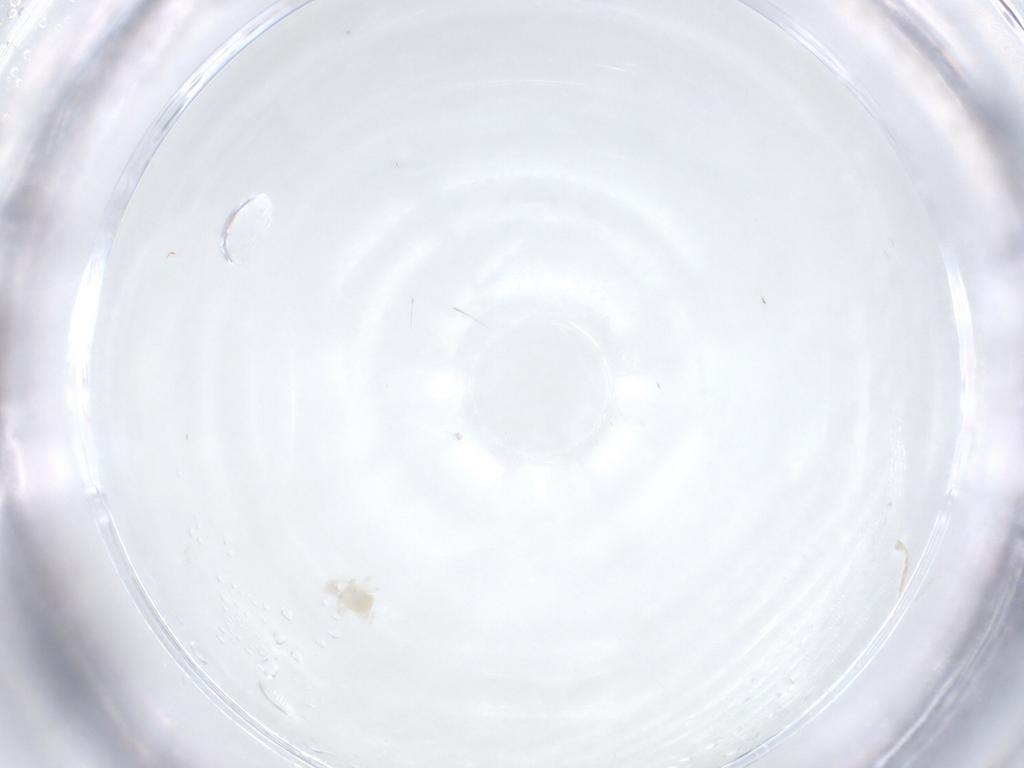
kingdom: Animalia
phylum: Arthropoda
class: Arachnida
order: Trombidiformes
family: Anystidae
